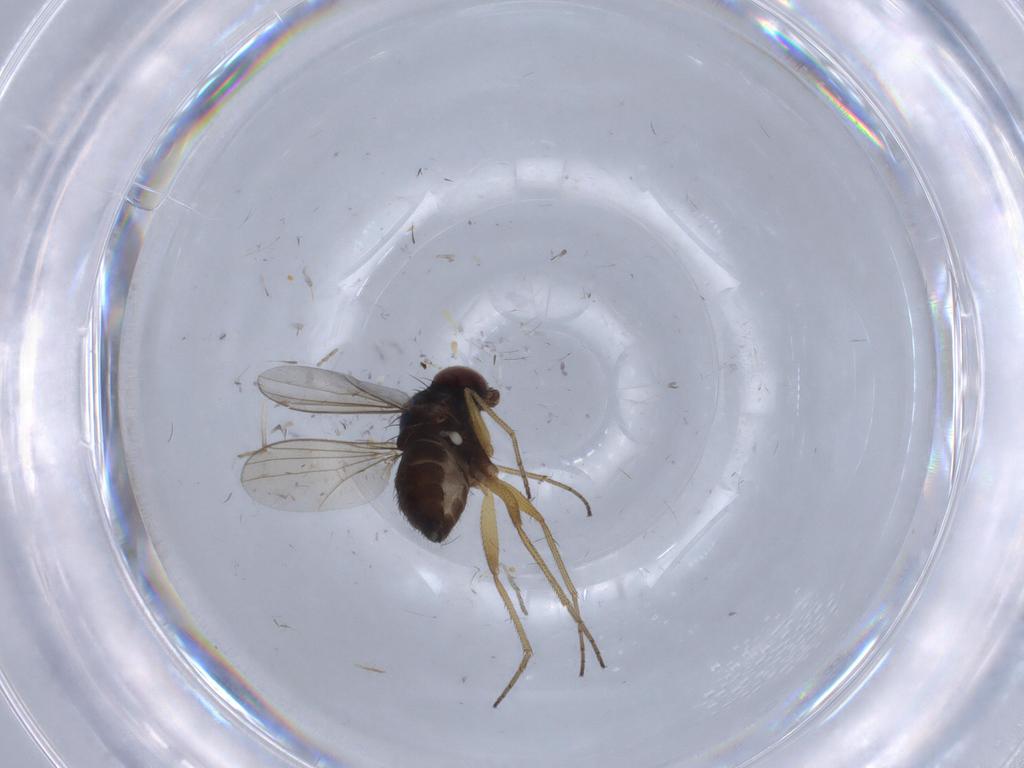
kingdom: Animalia
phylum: Arthropoda
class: Insecta
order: Diptera
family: Dolichopodidae
